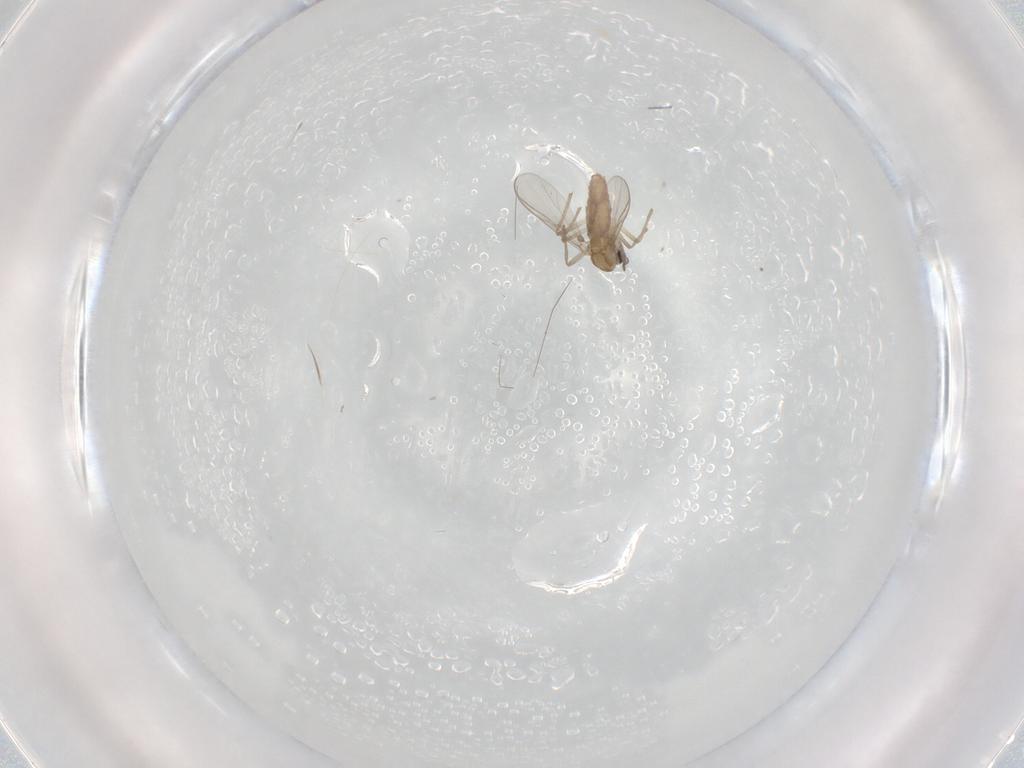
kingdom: Animalia
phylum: Arthropoda
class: Insecta
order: Diptera
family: Chironomidae
